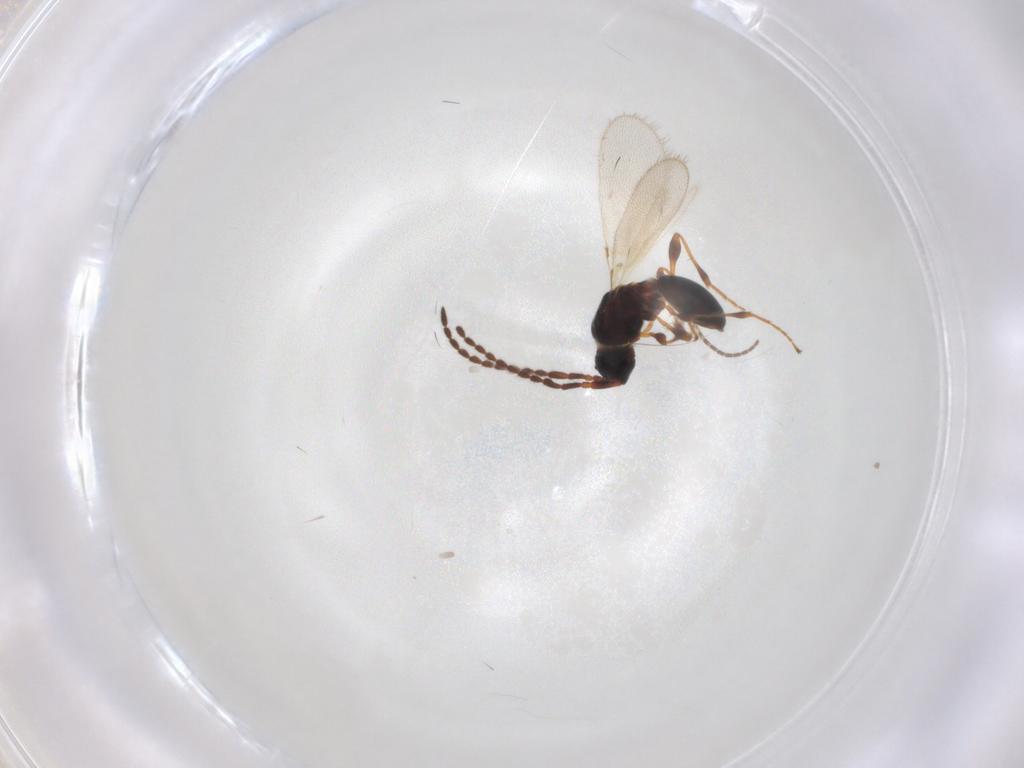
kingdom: Animalia
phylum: Arthropoda
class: Insecta
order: Hymenoptera
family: Diapriidae
